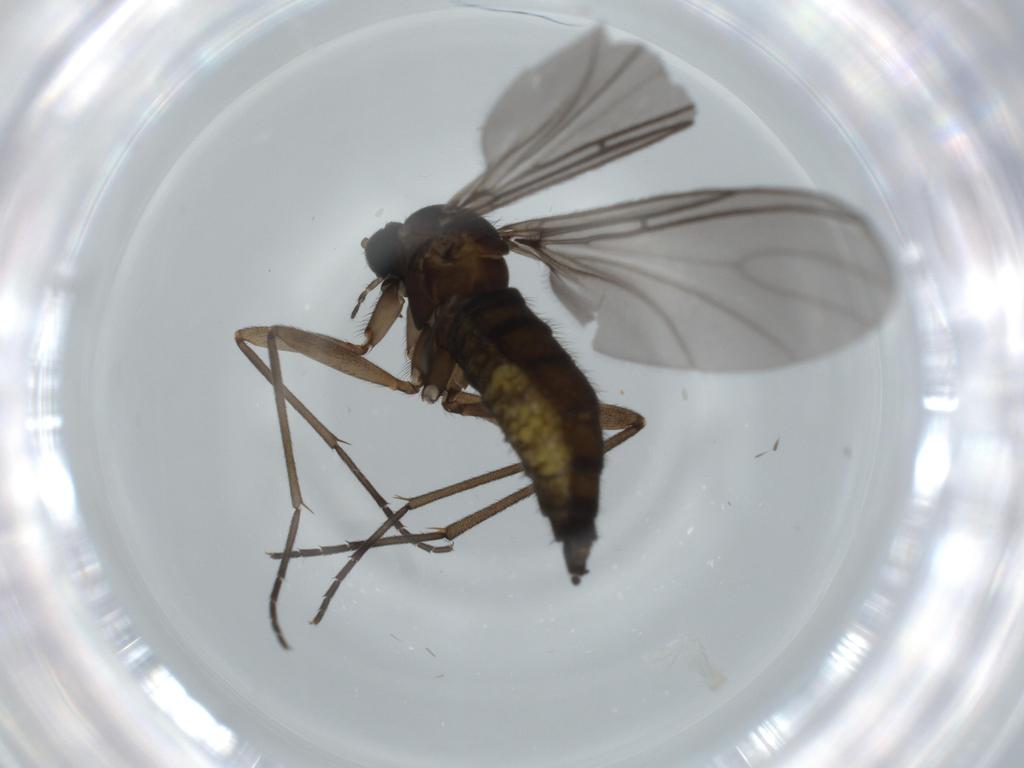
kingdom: Animalia
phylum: Arthropoda
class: Insecta
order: Diptera
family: Sciaridae
